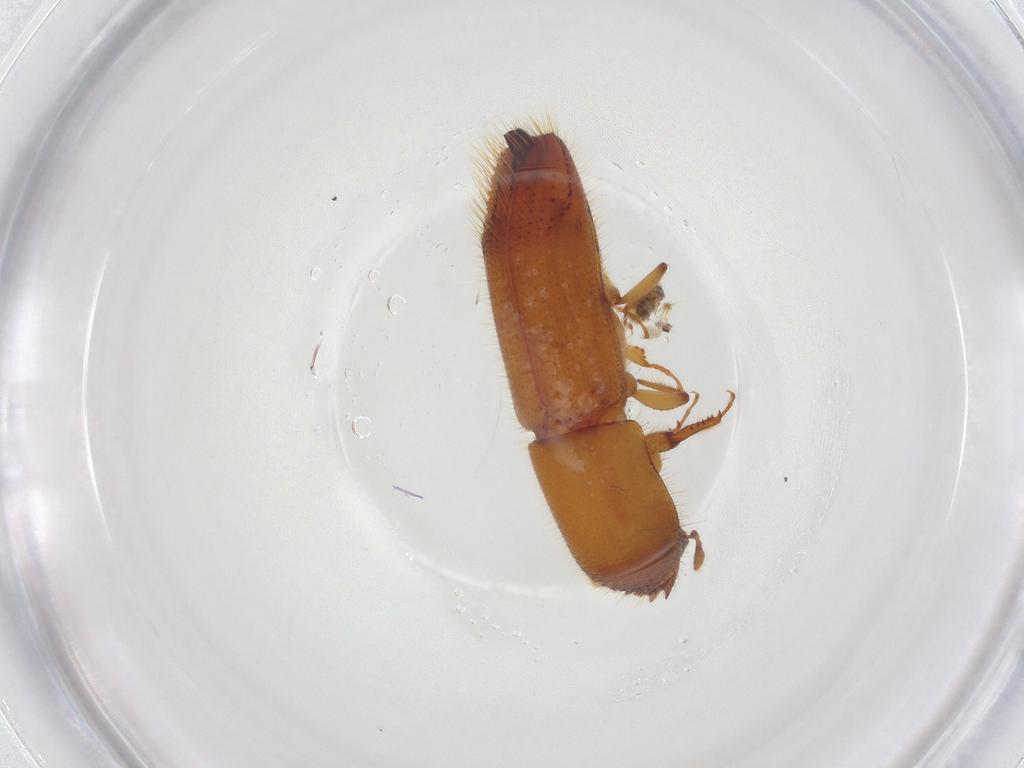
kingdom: Animalia
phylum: Arthropoda
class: Insecta
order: Coleoptera
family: Curculionidae
